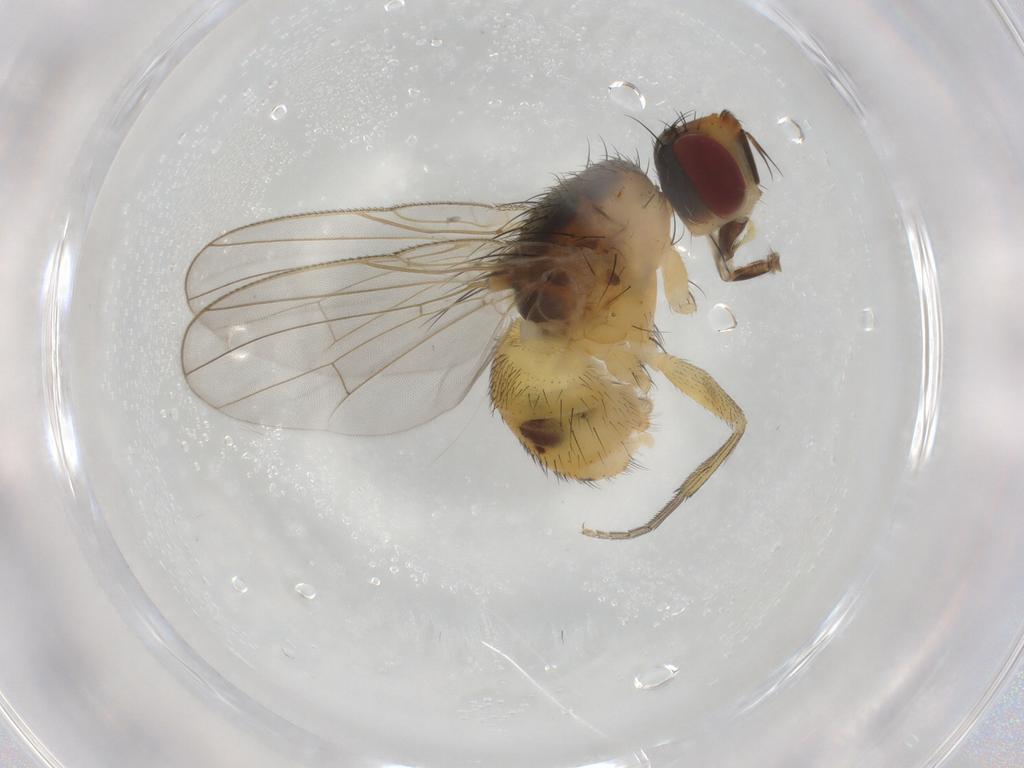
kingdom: Animalia
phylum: Arthropoda
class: Insecta
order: Diptera
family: Muscidae
